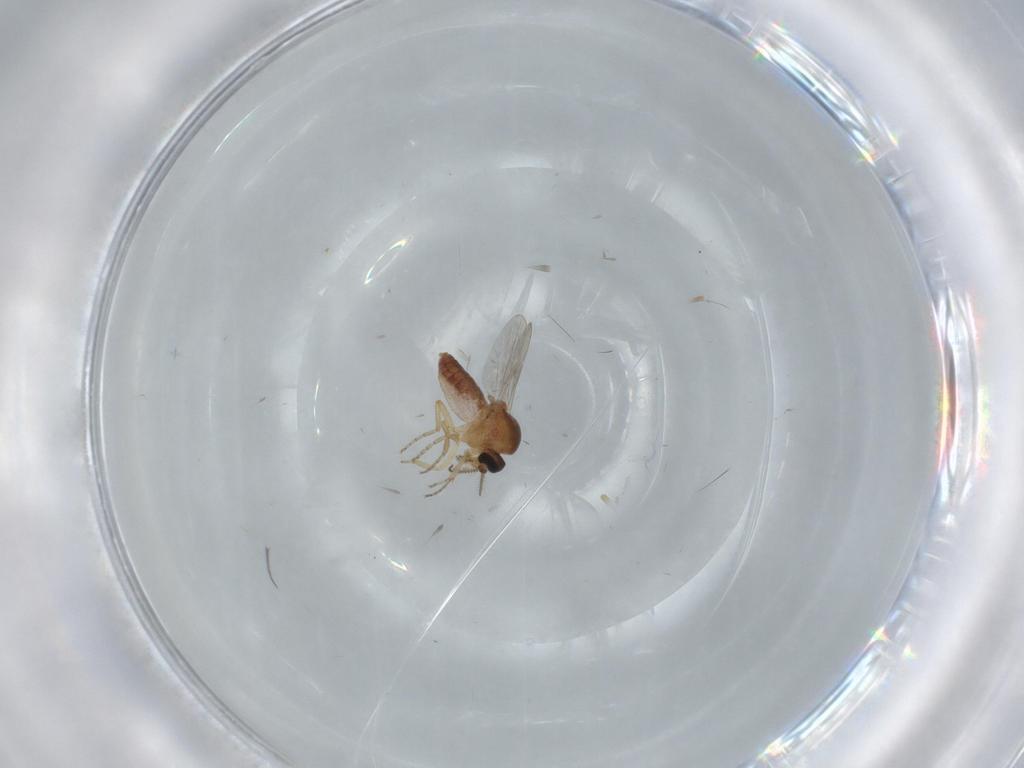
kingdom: Animalia
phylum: Arthropoda
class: Insecta
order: Diptera
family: Ceratopogonidae
